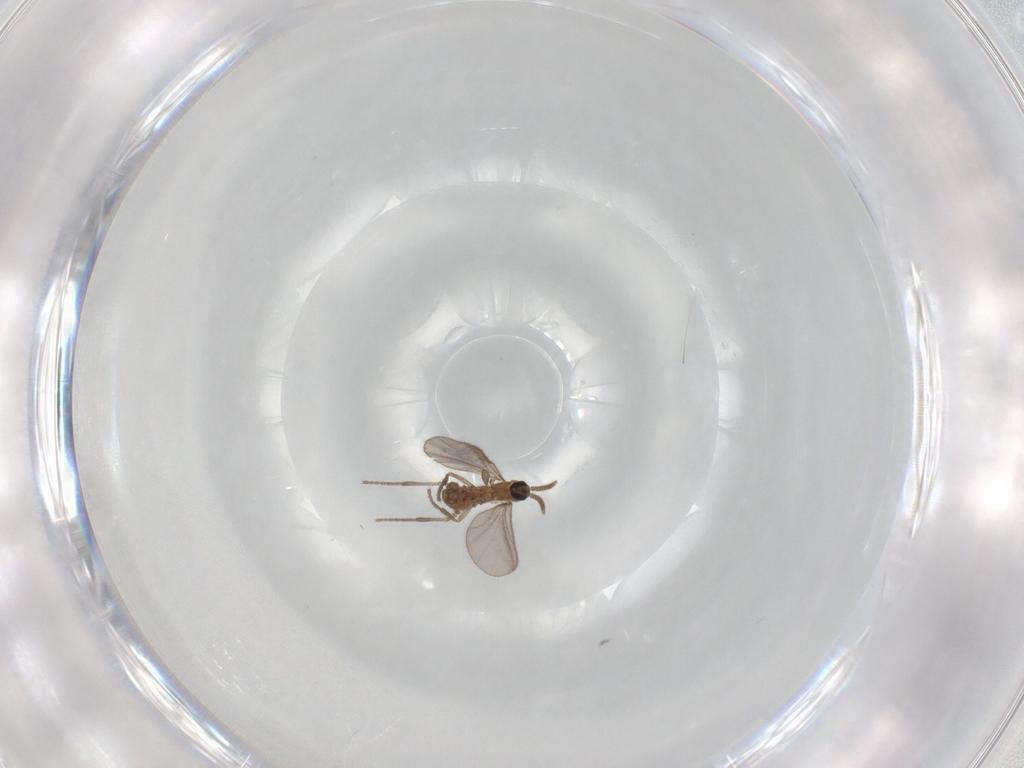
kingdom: Animalia
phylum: Arthropoda
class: Insecta
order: Diptera
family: Sciaridae
